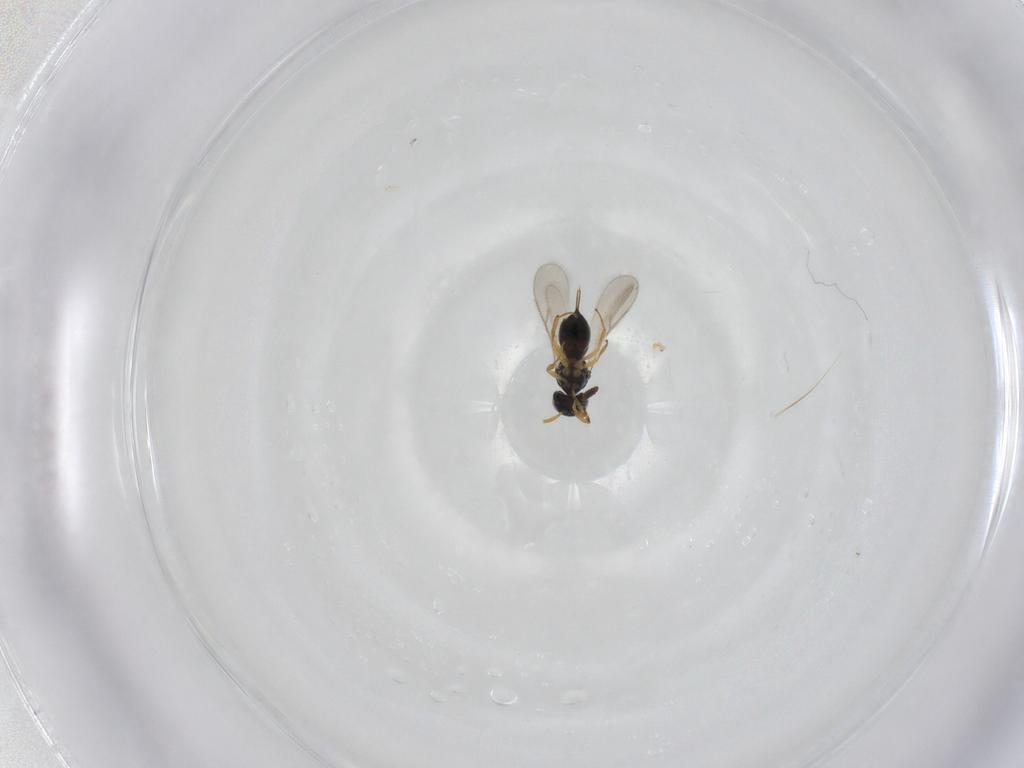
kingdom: Animalia
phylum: Arthropoda
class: Insecta
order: Hymenoptera
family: Scelionidae
